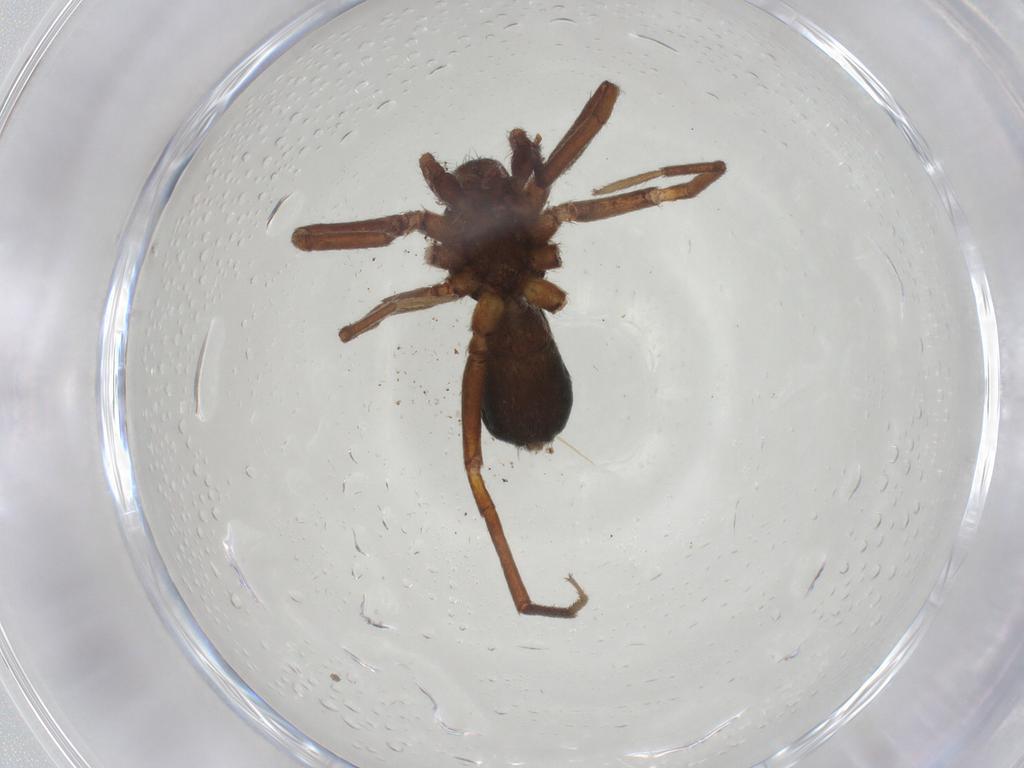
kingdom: Animalia
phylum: Arthropoda
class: Arachnida
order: Araneae
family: Gnaphosidae
